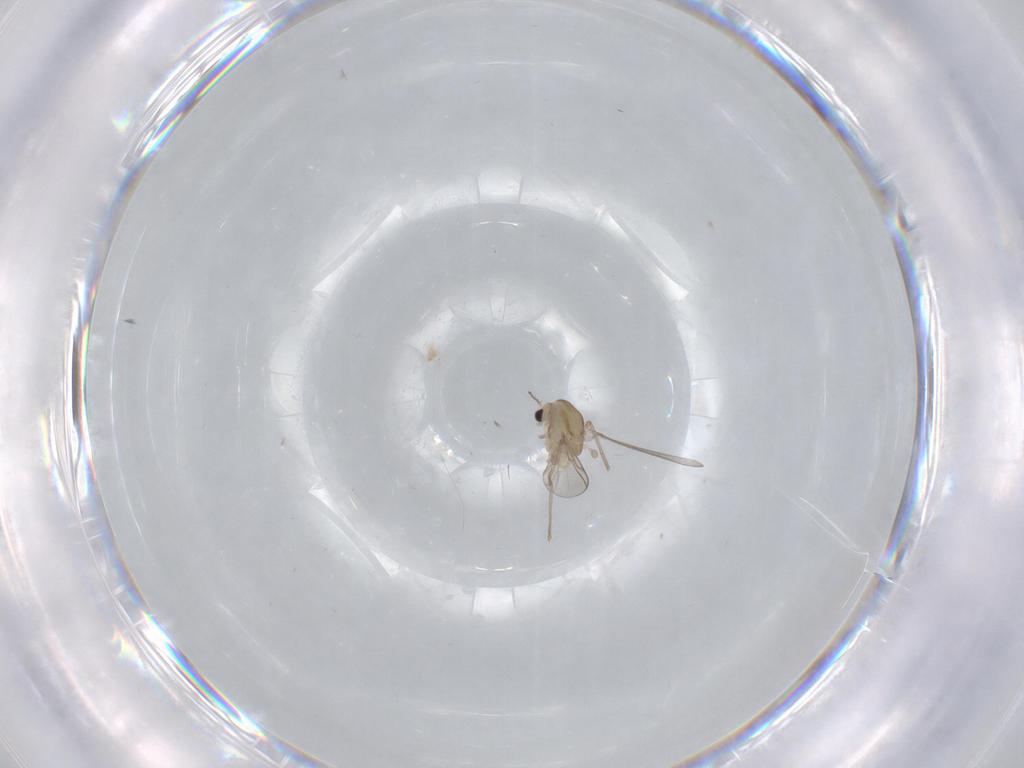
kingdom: Animalia
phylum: Arthropoda
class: Insecta
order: Diptera
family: Chironomidae
